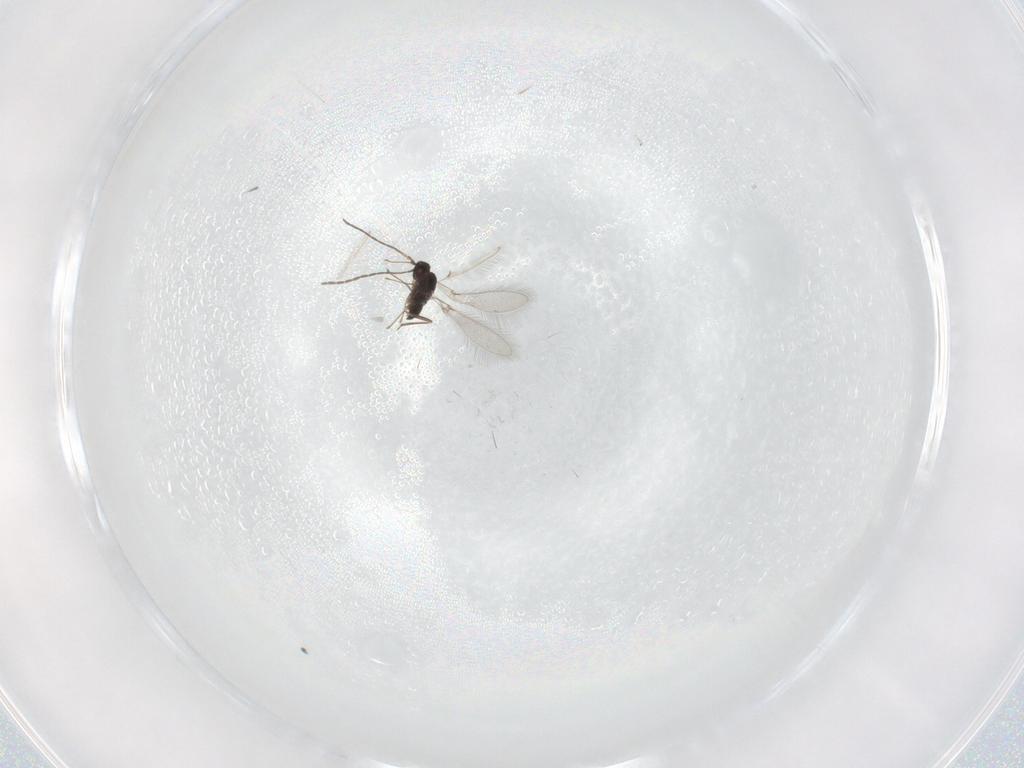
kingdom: Animalia
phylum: Arthropoda
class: Insecta
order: Hymenoptera
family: Mymaridae
